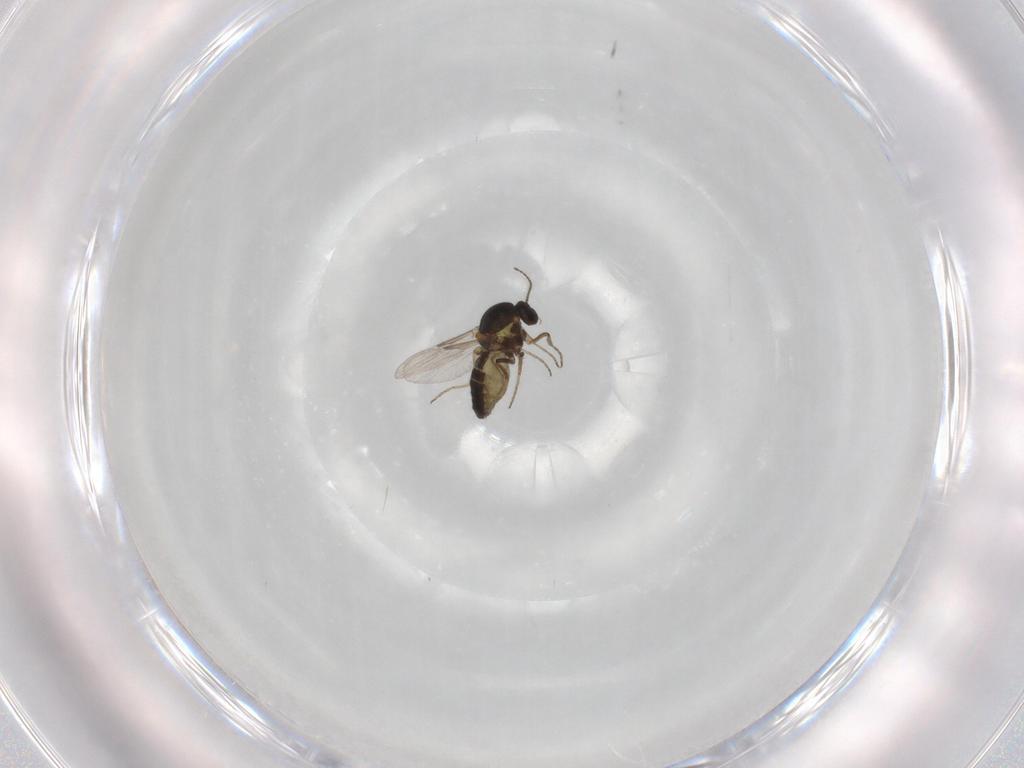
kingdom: Animalia
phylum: Arthropoda
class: Insecta
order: Diptera
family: Ceratopogonidae
